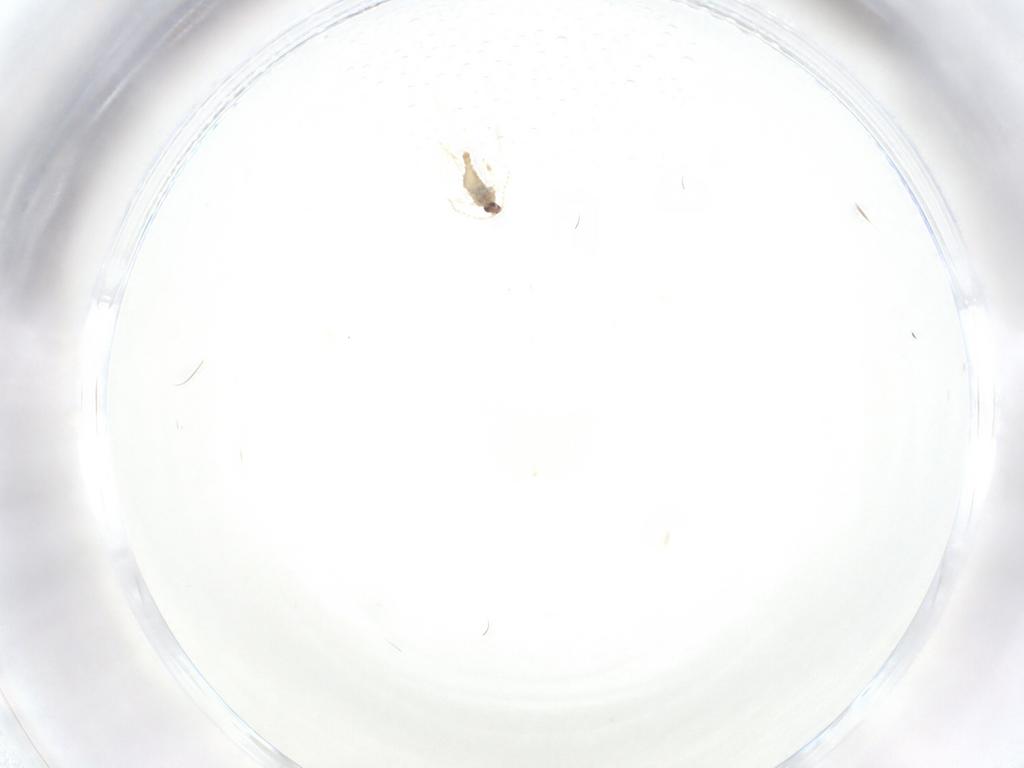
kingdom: Animalia
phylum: Arthropoda
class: Insecta
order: Diptera
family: Cecidomyiidae
